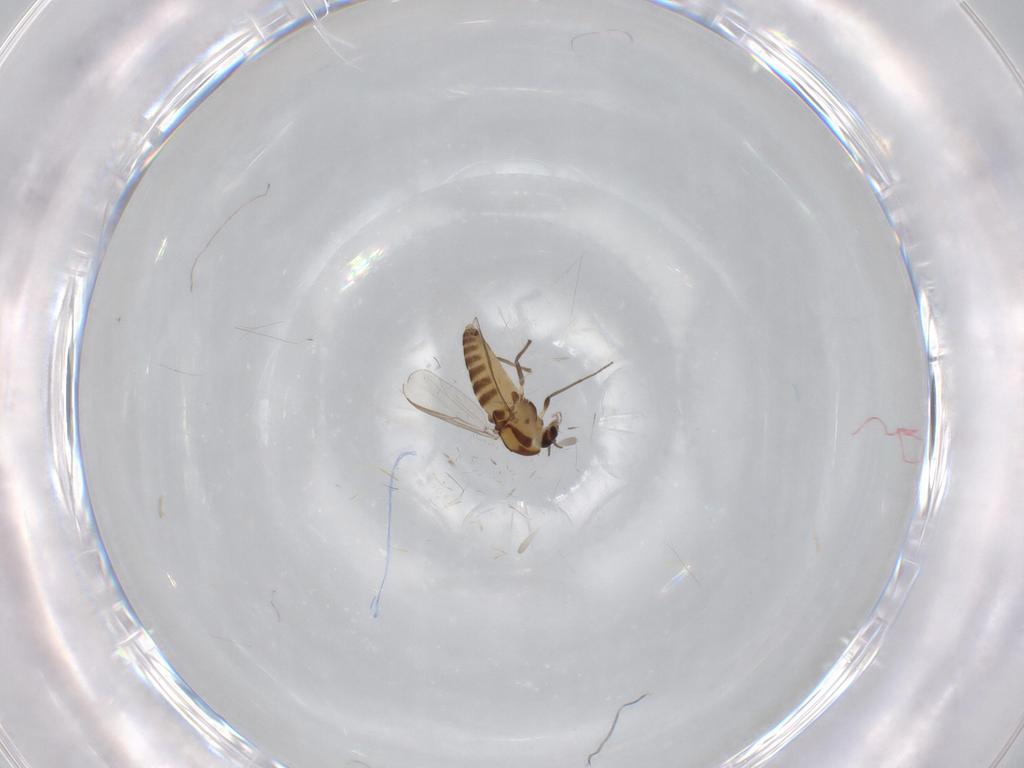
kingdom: Animalia
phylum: Arthropoda
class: Insecta
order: Diptera
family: Chironomidae
